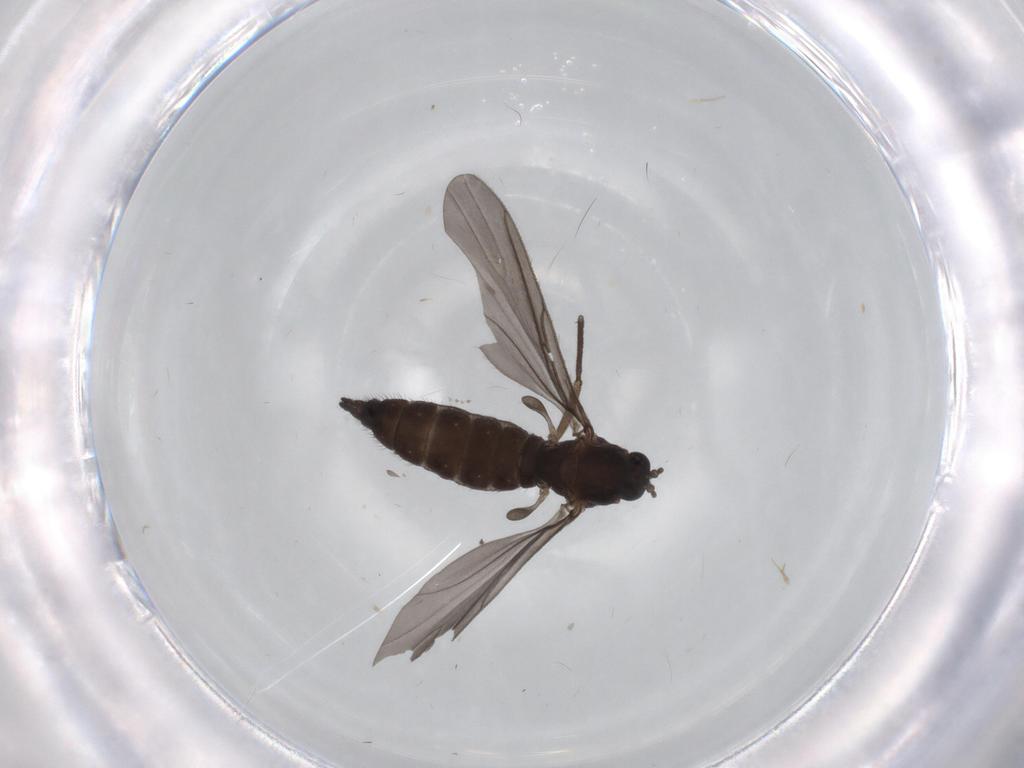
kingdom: Animalia
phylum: Arthropoda
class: Insecta
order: Diptera
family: Sciaridae
